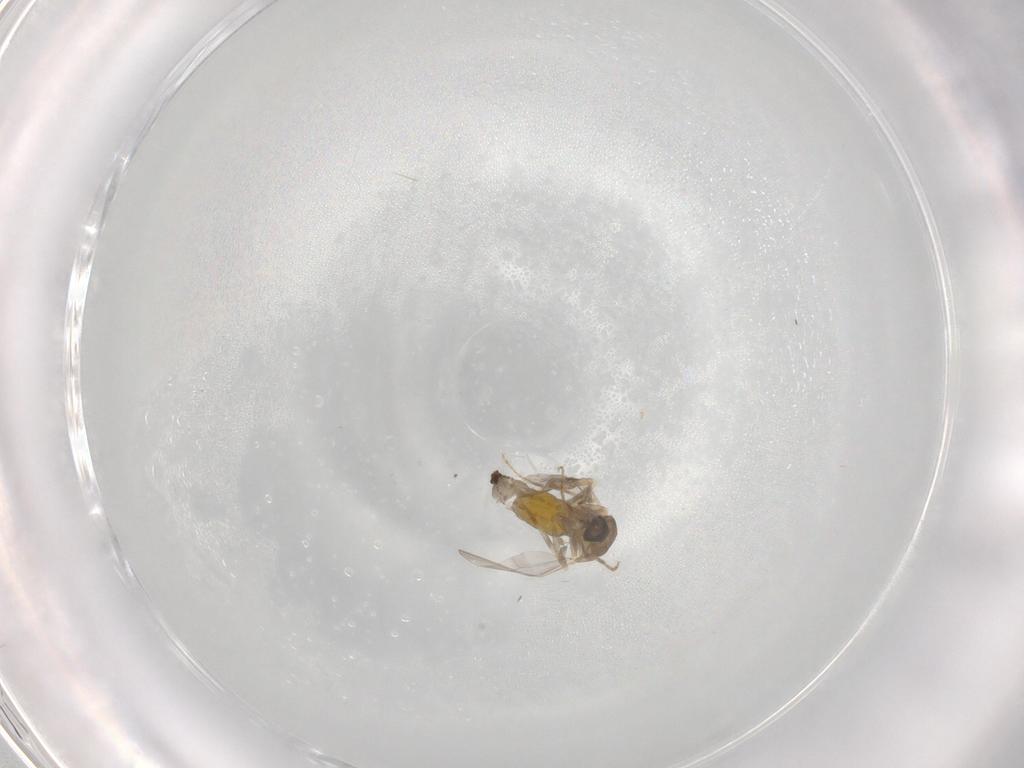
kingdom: Animalia
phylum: Arthropoda
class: Insecta
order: Diptera
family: Ceratopogonidae
